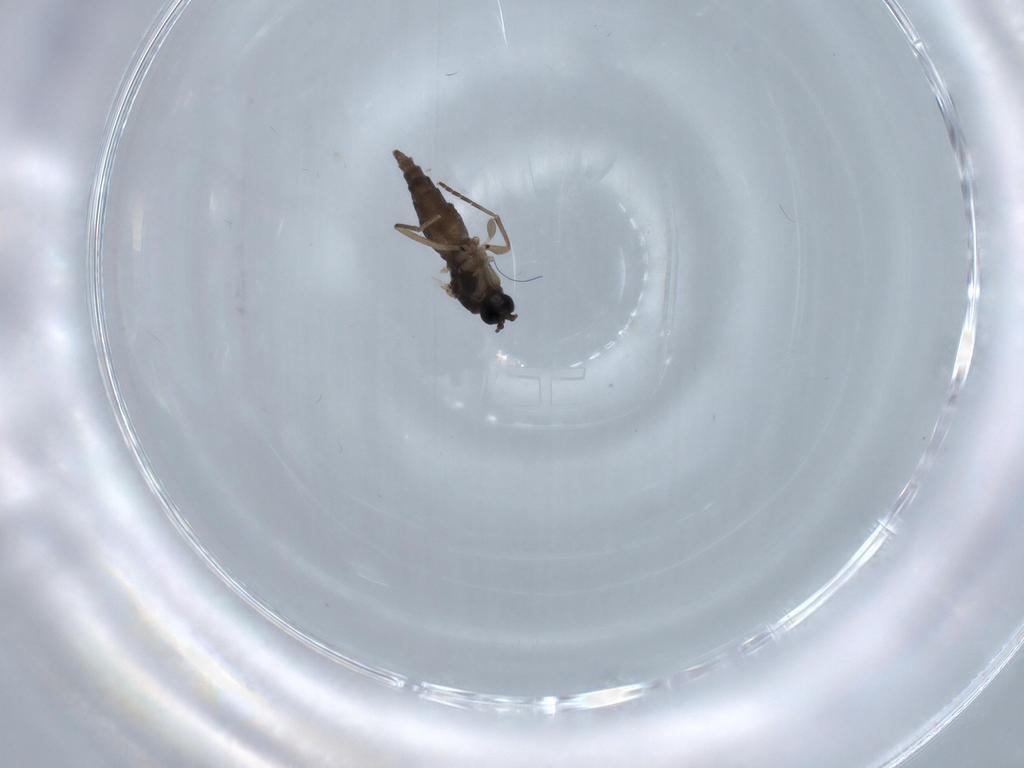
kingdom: Animalia
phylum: Arthropoda
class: Insecta
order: Diptera
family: Sciaridae
